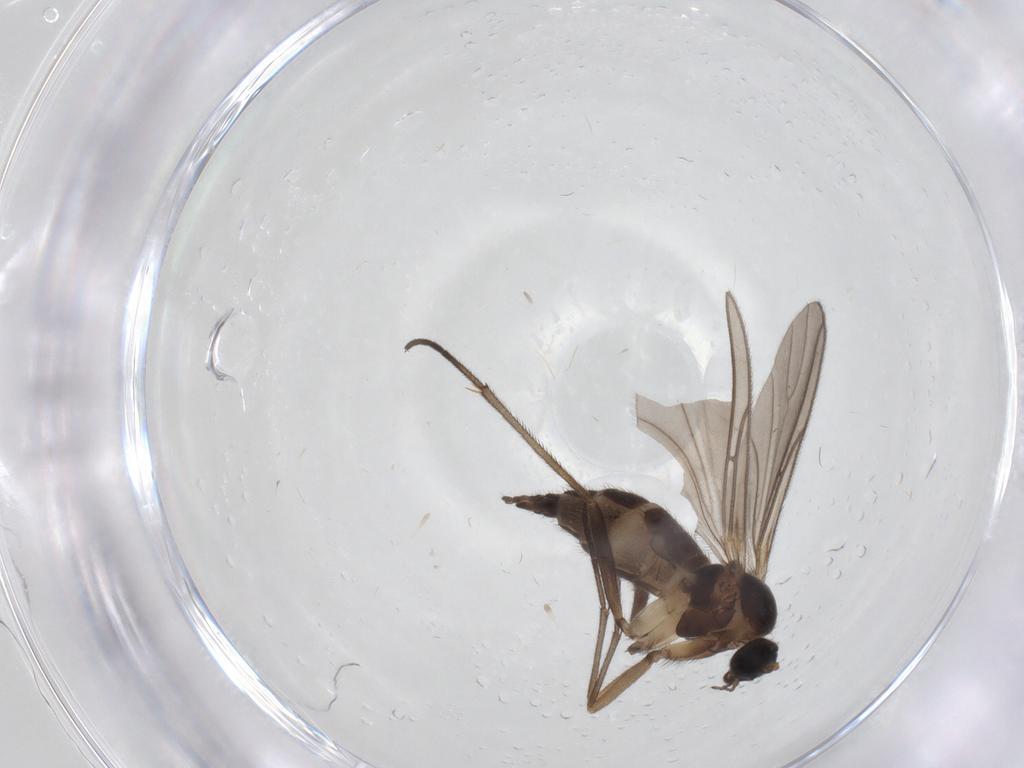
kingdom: Animalia
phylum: Arthropoda
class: Insecta
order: Diptera
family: Sciaridae
